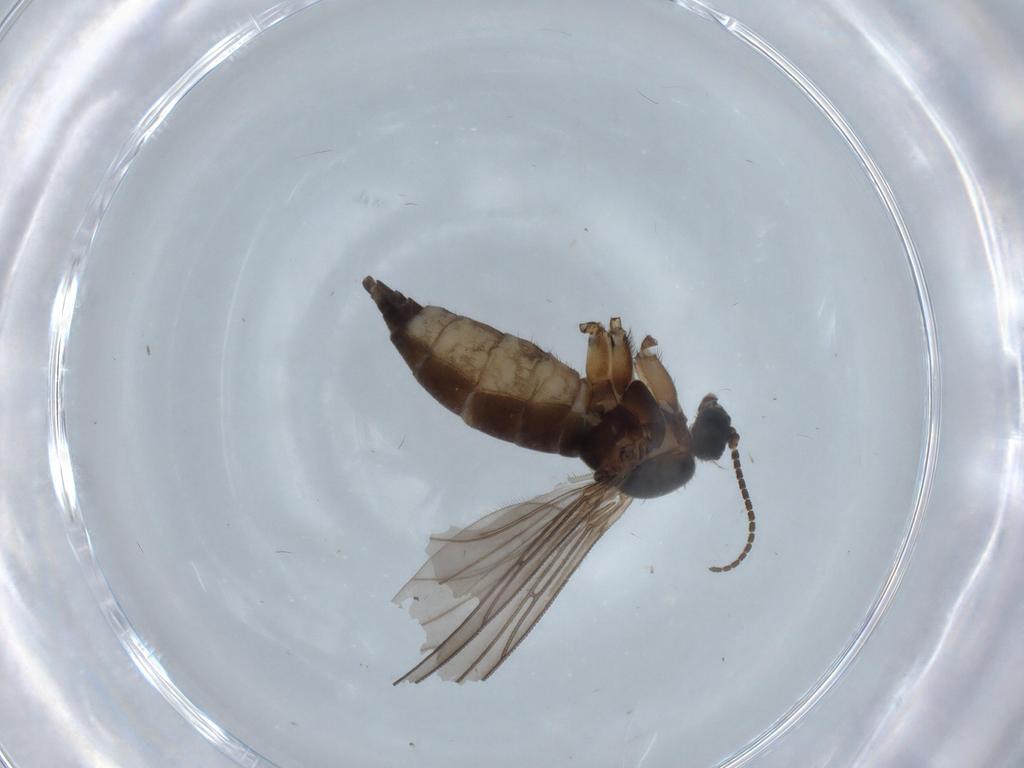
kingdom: Animalia
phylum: Arthropoda
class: Insecta
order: Diptera
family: Sciaridae
